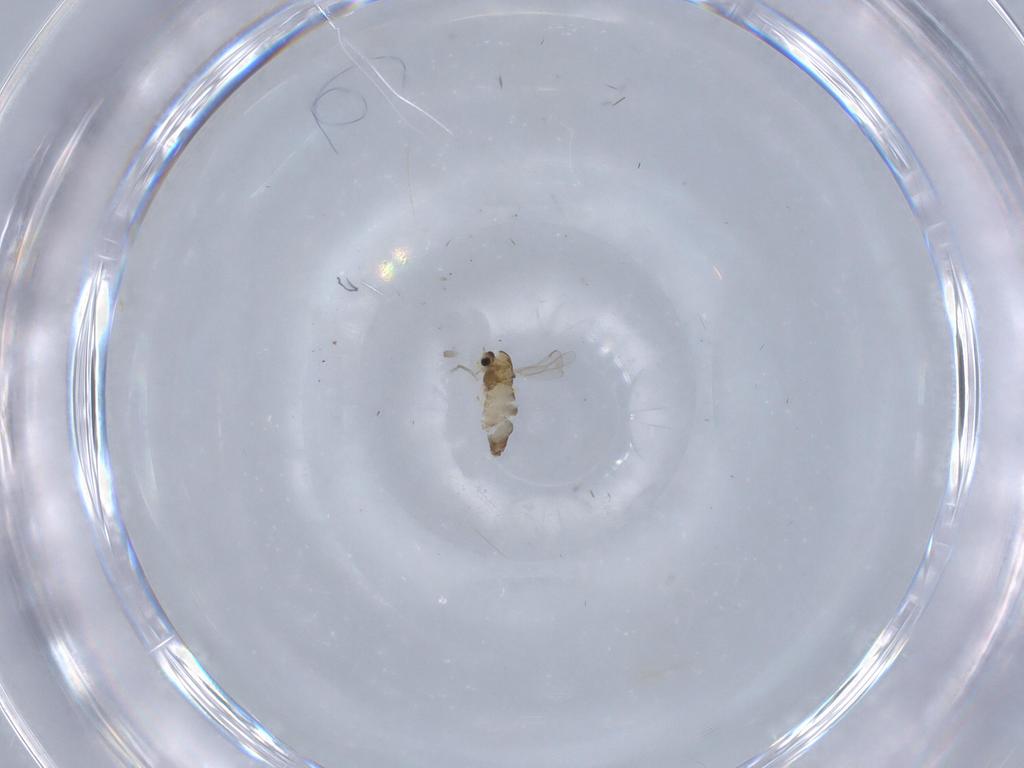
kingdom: Animalia
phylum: Arthropoda
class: Insecta
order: Diptera
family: Chironomidae
